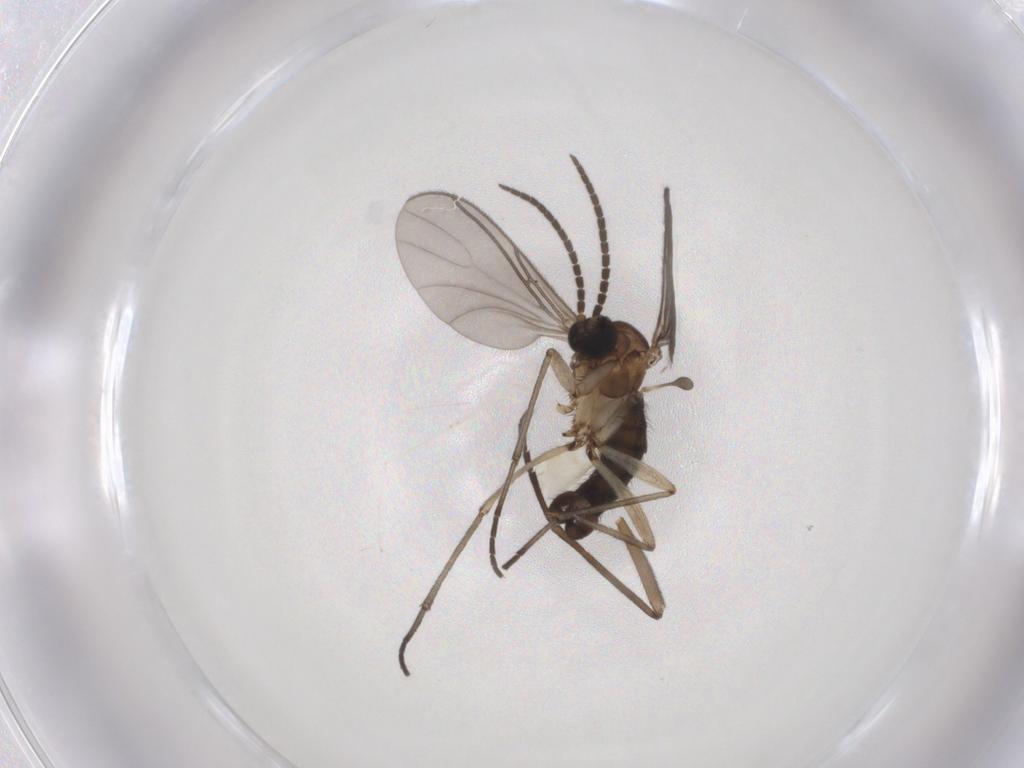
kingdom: Animalia
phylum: Arthropoda
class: Insecta
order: Diptera
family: Sciaridae
